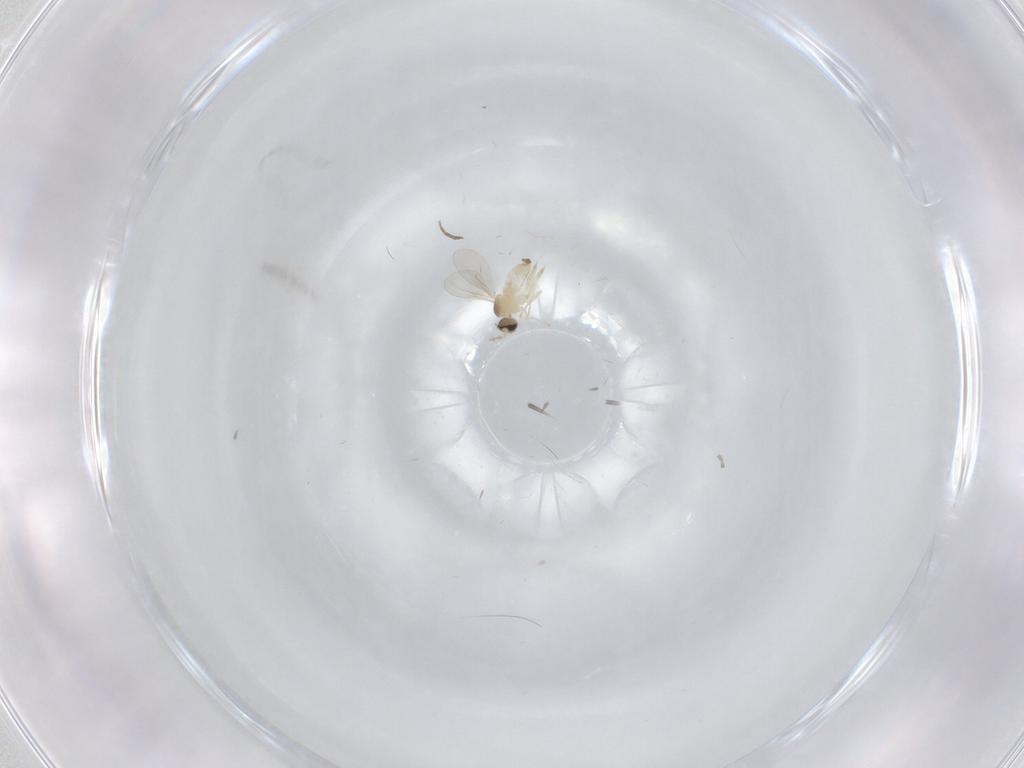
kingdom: Animalia
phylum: Arthropoda
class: Insecta
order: Diptera
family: Cecidomyiidae
